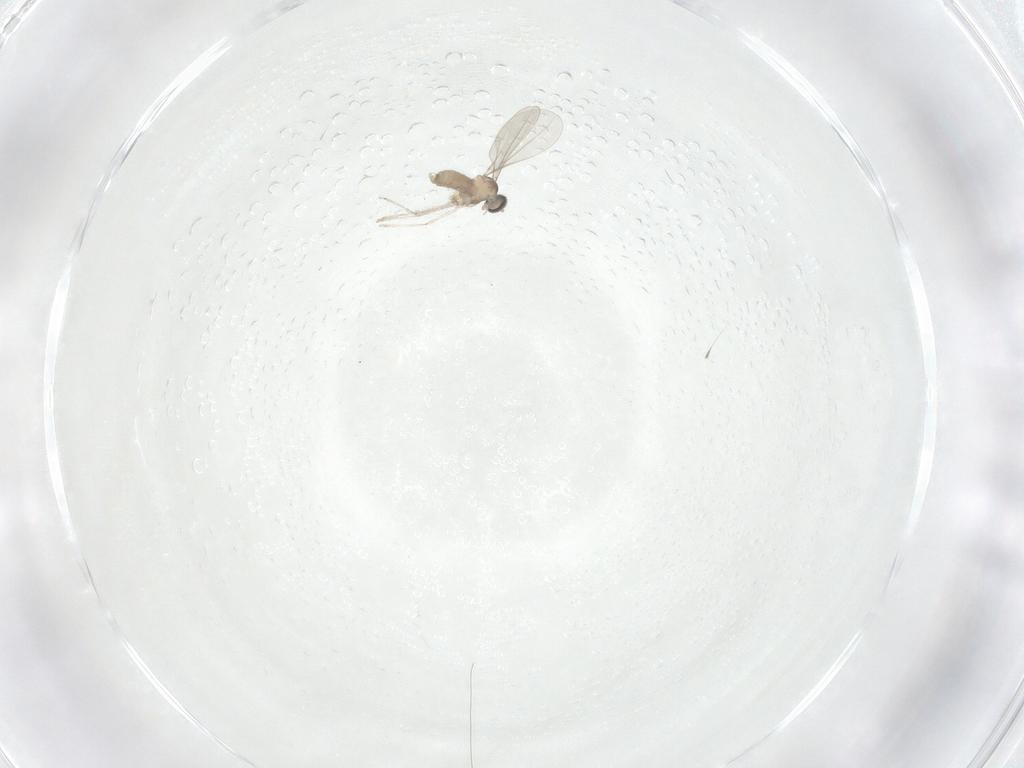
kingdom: Animalia
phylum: Arthropoda
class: Insecta
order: Diptera
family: Cecidomyiidae
